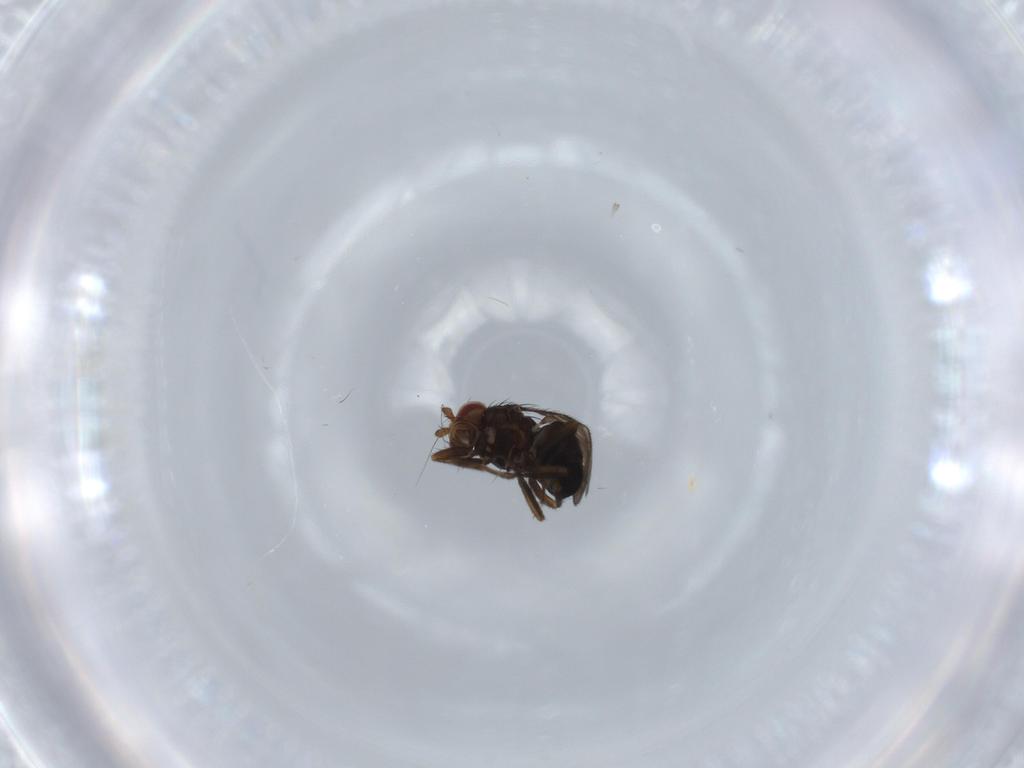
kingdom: Animalia
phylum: Arthropoda
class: Insecta
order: Diptera
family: Sphaeroceridae
